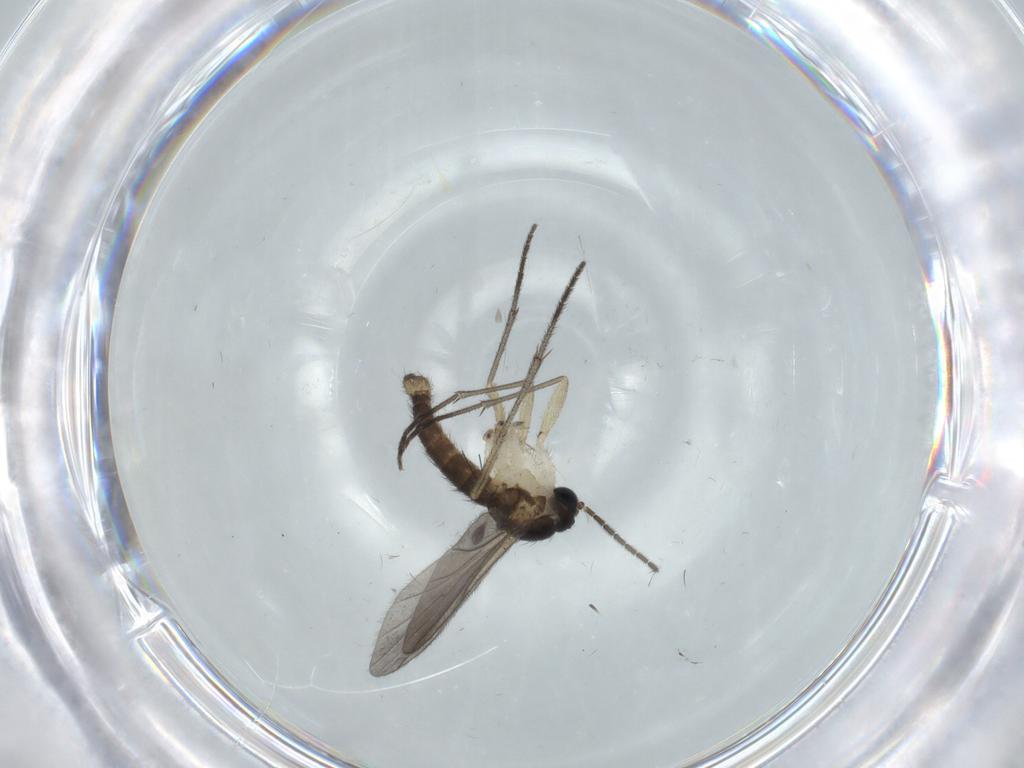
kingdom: Animalia
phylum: Arthropoda
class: Insecta
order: Diptera
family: Sciaridae
